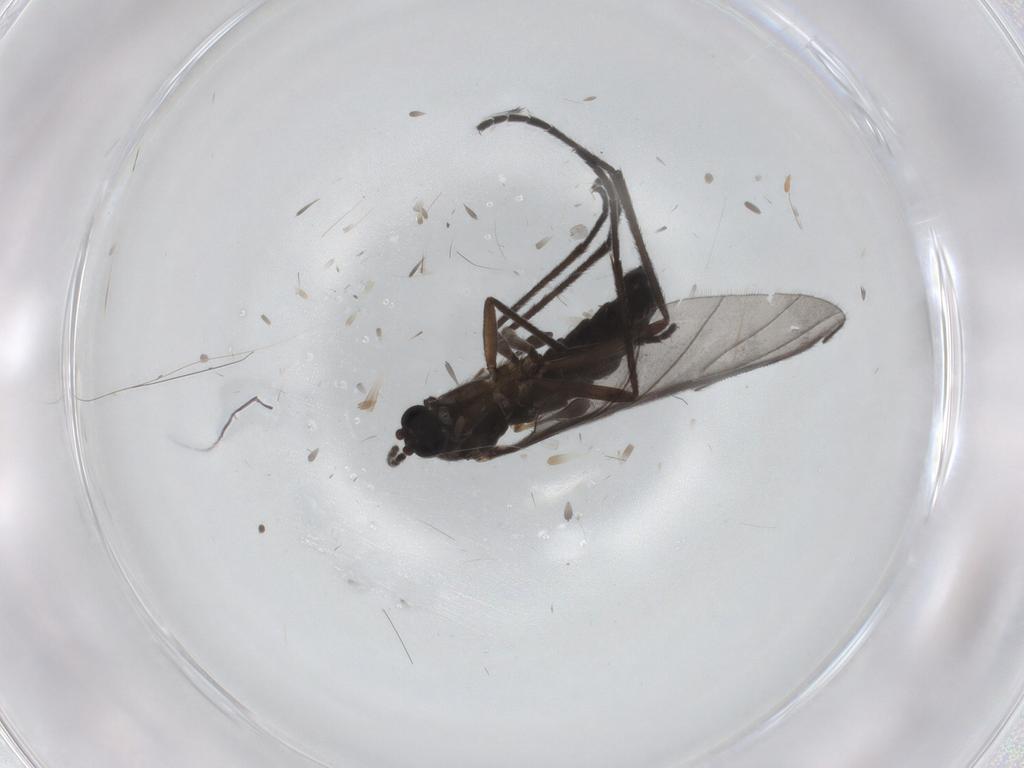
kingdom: Animalia
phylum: Arthropoda
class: Insecta
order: Diptera
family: Sciaridae
